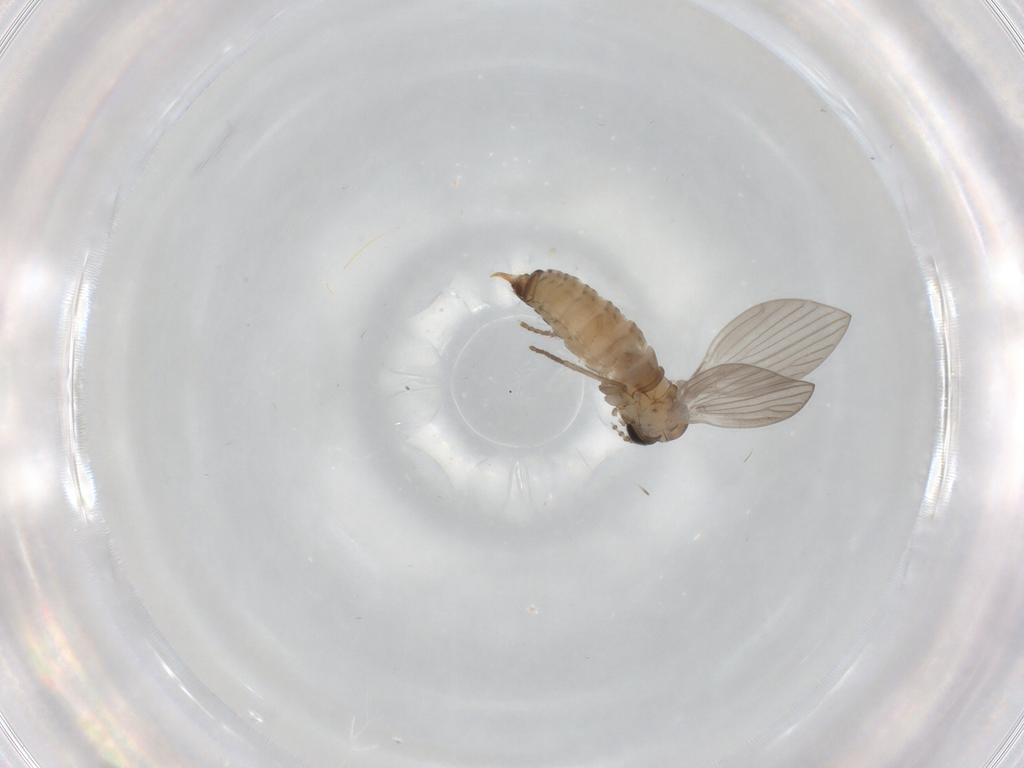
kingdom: Animalia
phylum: Arthropoda
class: Insecta
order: Diptera
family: Psychodidae
